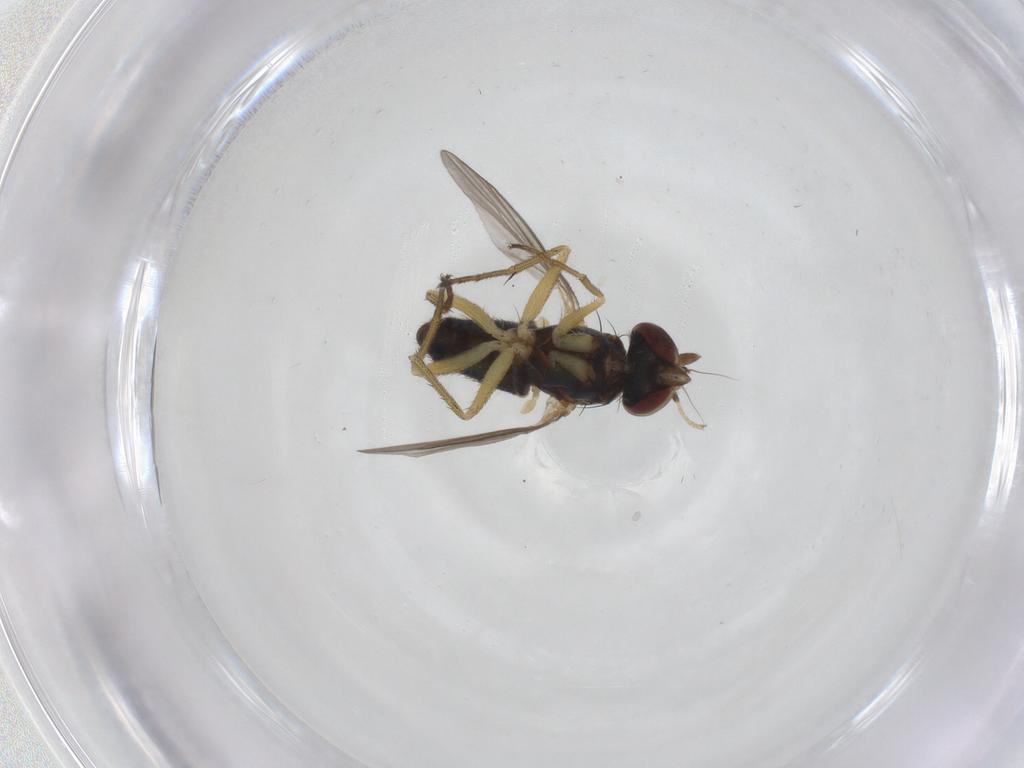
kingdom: Animalia
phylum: Arthropoda
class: Insecta
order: Diptera
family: Dolichopodidae
